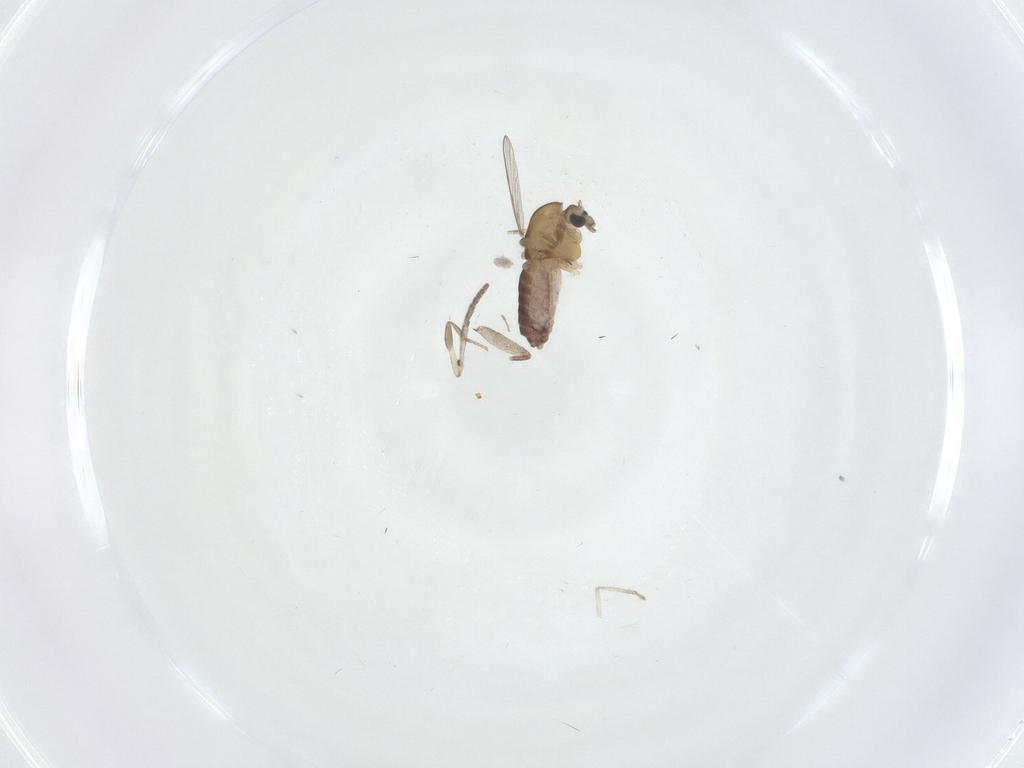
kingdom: Animalia
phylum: Arthropoda
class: Insecta
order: Diptera
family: Chironomidae
